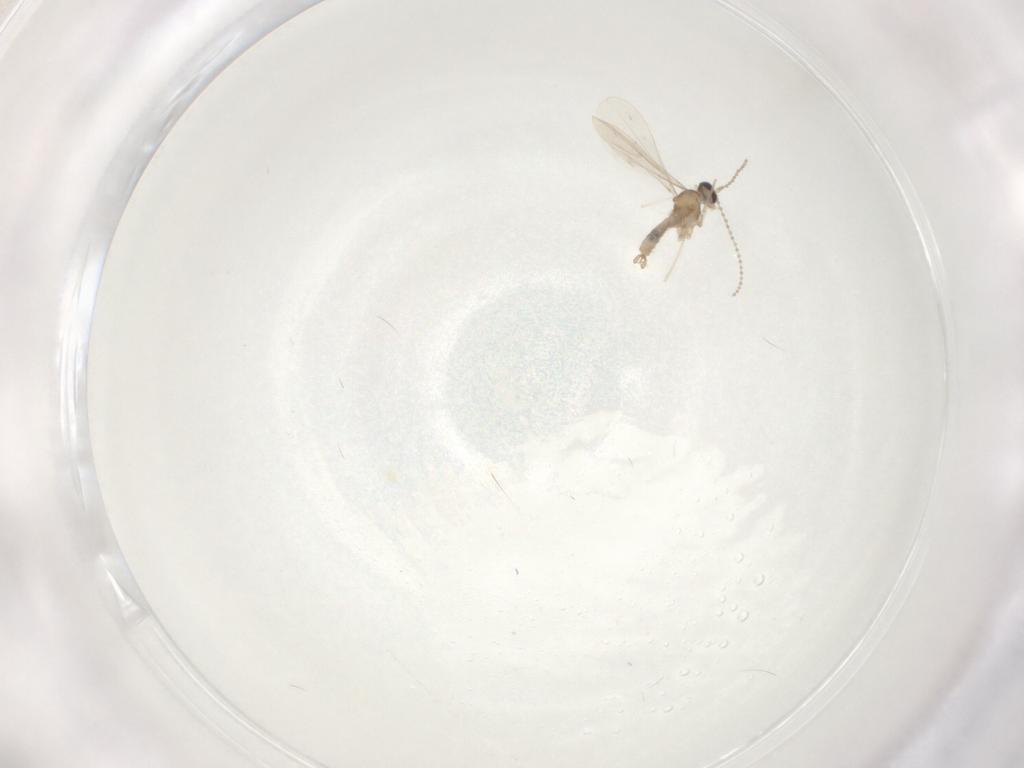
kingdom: Animalia
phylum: Arthropoda
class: Insecta
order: Diptera
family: Cecidomyiidae
